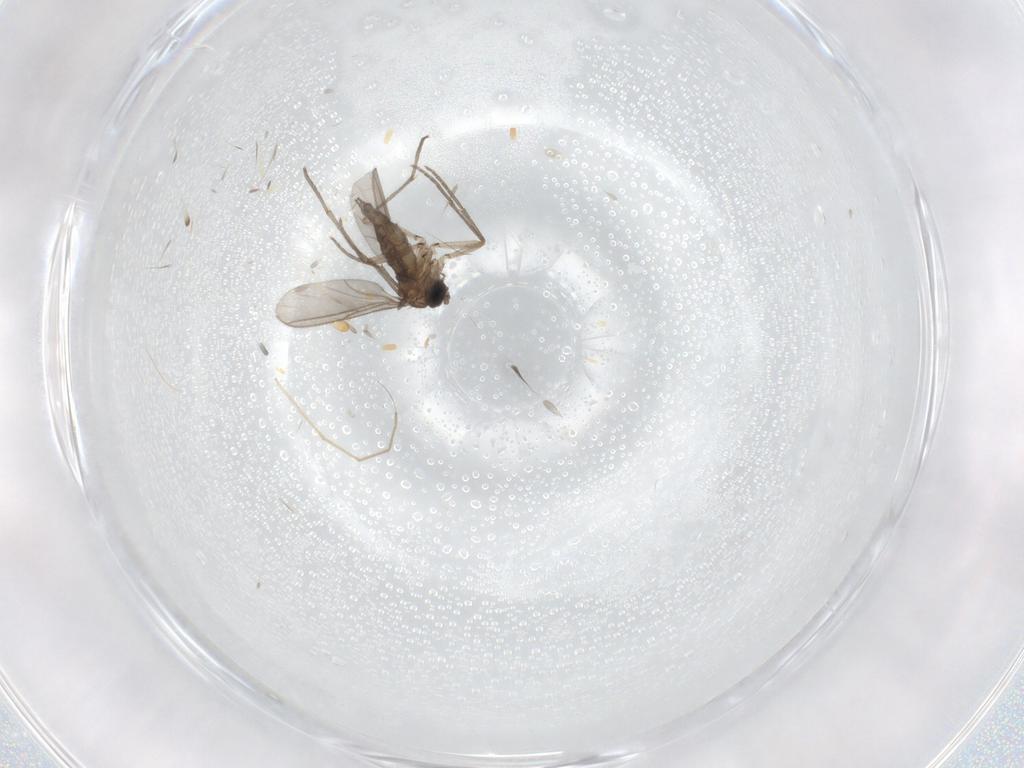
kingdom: Animalia
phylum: Arthropoda
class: Insecta
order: Diptera
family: Sciaridae
